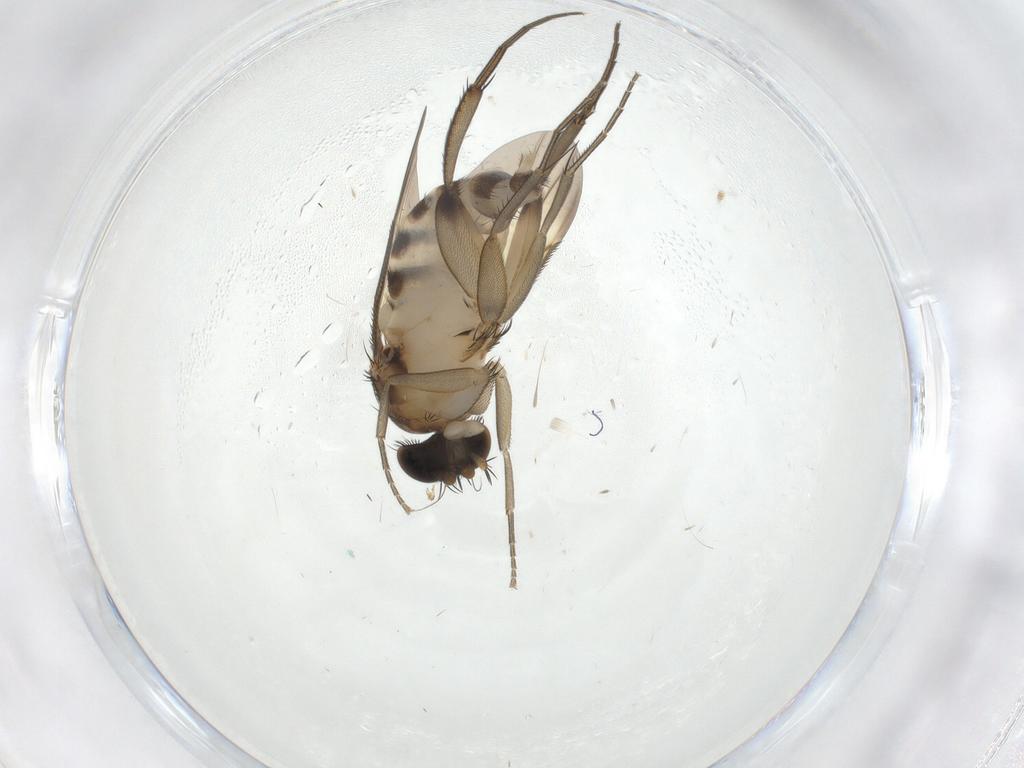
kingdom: Animalia
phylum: Arthropoda
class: Insecta
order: Diptera
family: Phoridae
